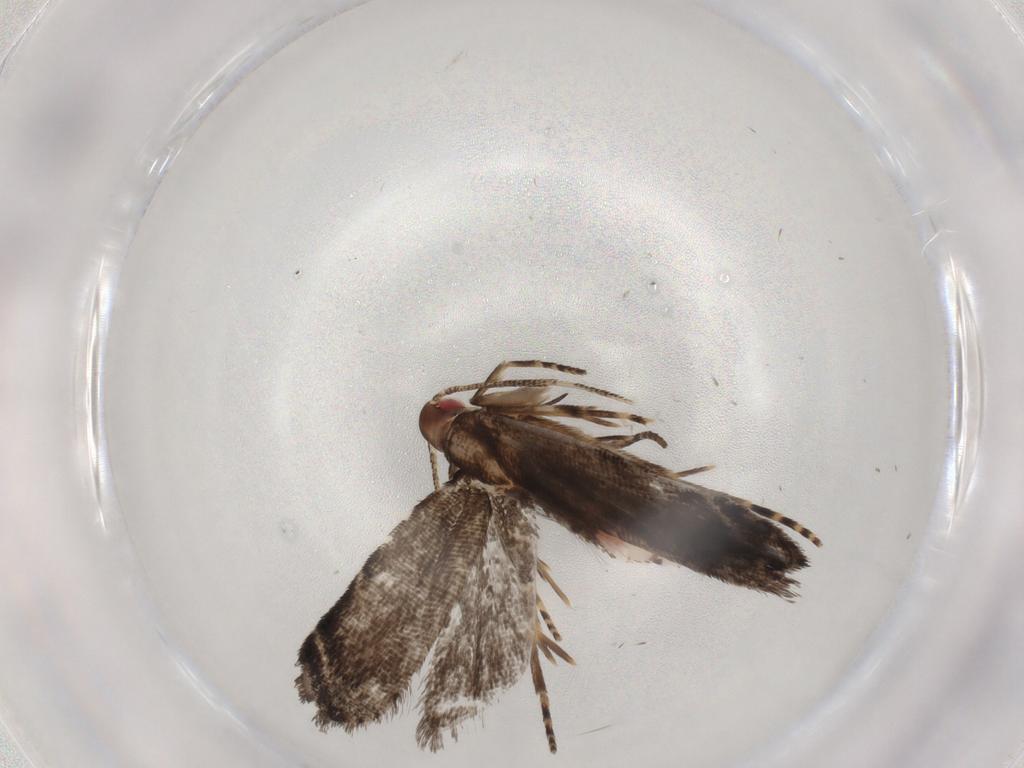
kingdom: Animalia
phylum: Arthropoda
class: Insecta
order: Lepidoptera
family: Gelechiidae
